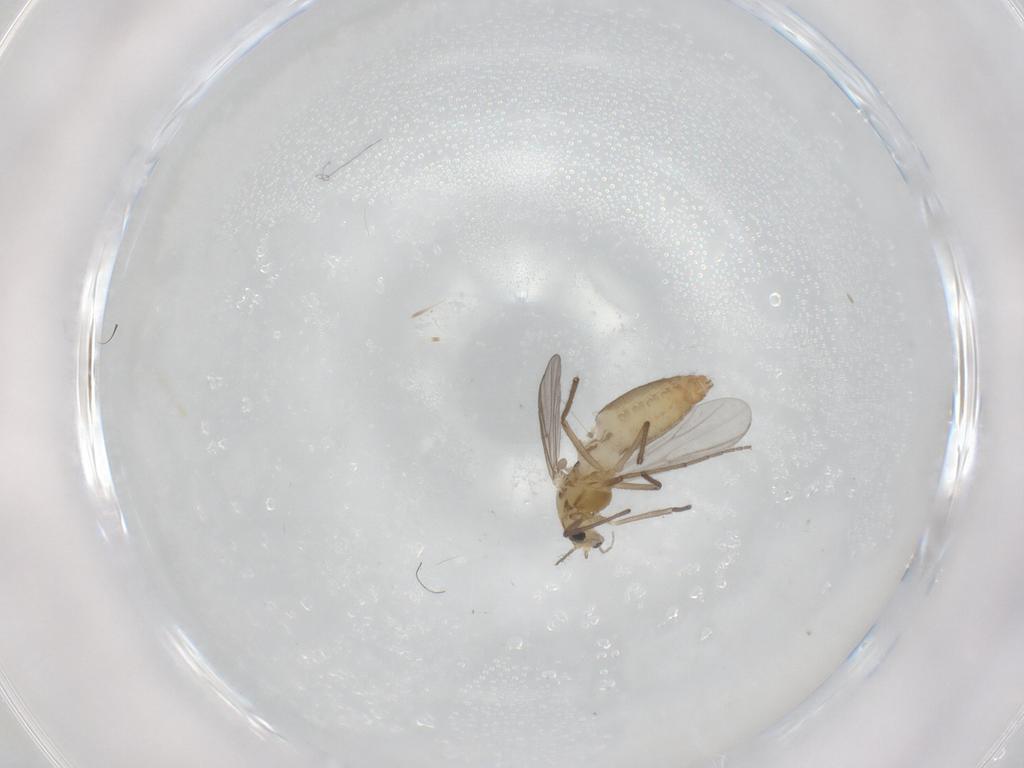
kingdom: Animalia
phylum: Arthropoda
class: Insecta
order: Diptera
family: Chironomidae
